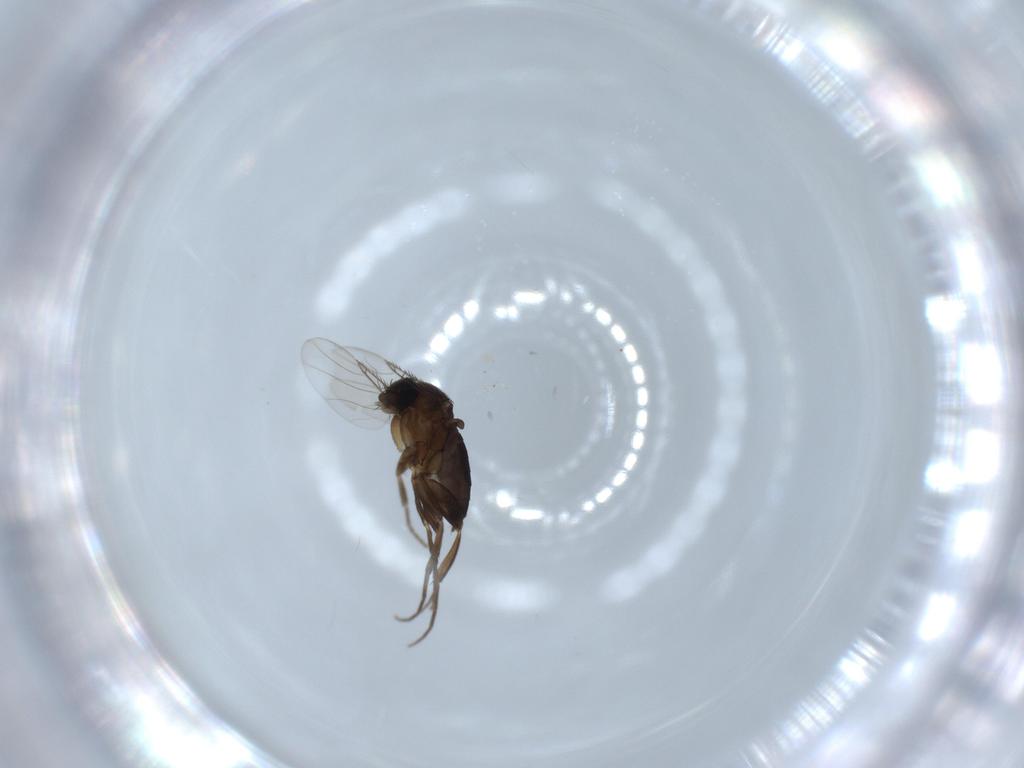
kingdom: Animalia
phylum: Arthropoda
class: Insecta
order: Diptera
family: Phoridae
